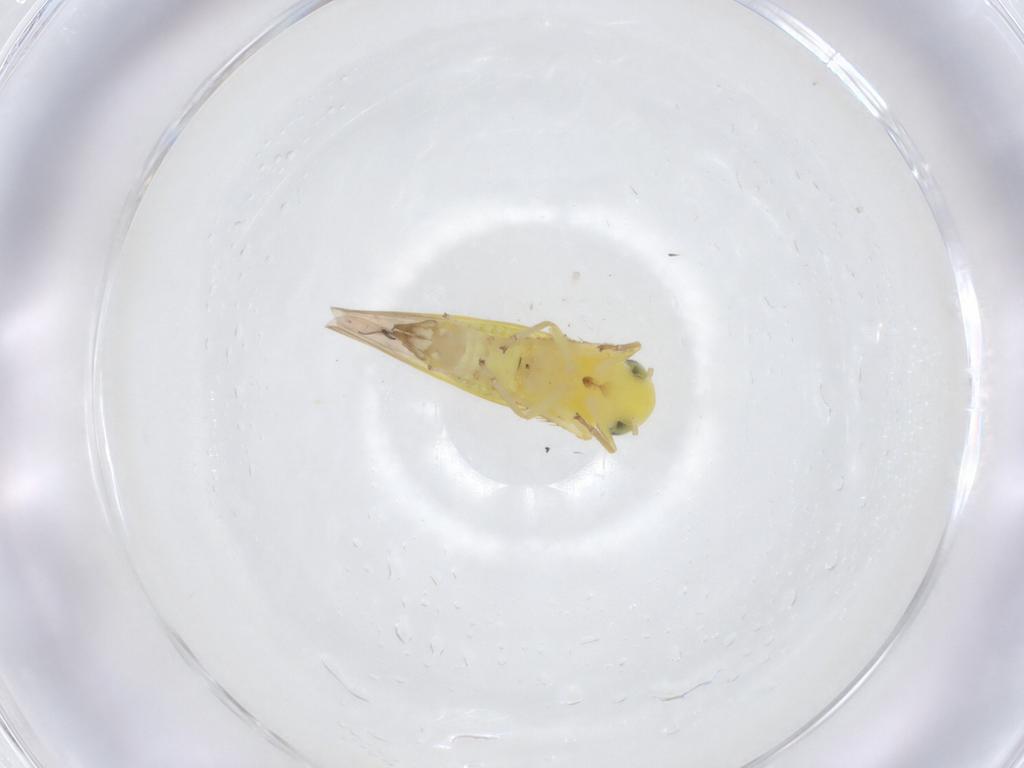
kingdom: Animalia
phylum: Arthropoda
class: Insecta
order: Hemiptera
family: Cicadellidae
